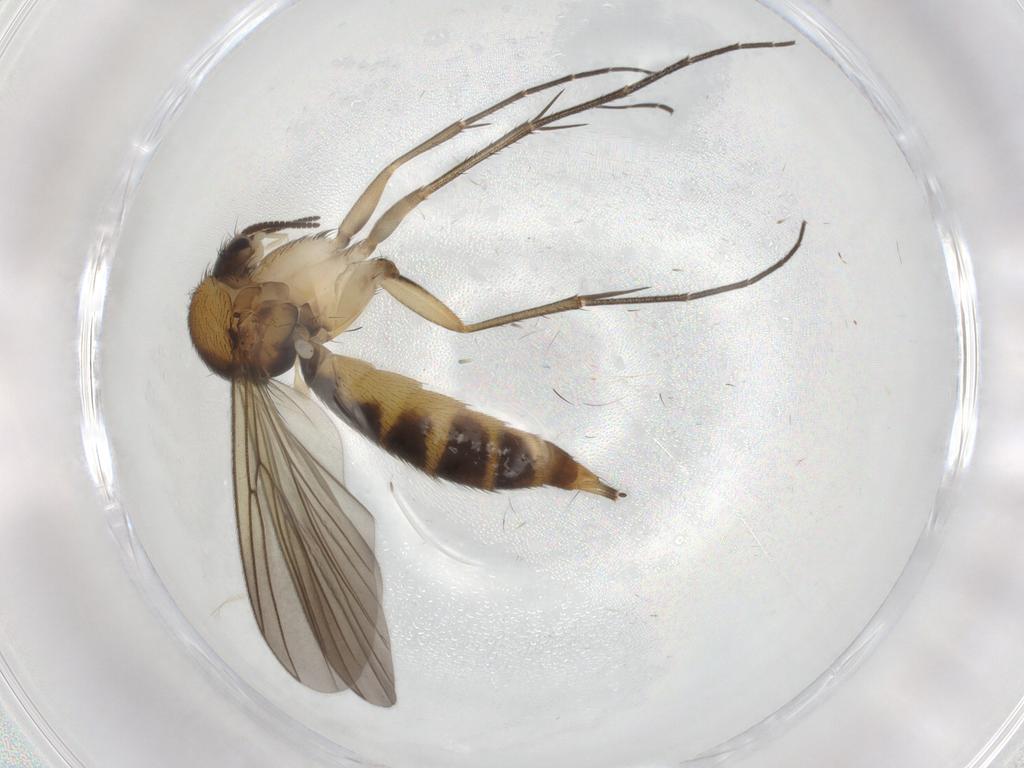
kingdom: Animalia
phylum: Arthropoda
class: Insecta
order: Diptera
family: Mycetophilidae
